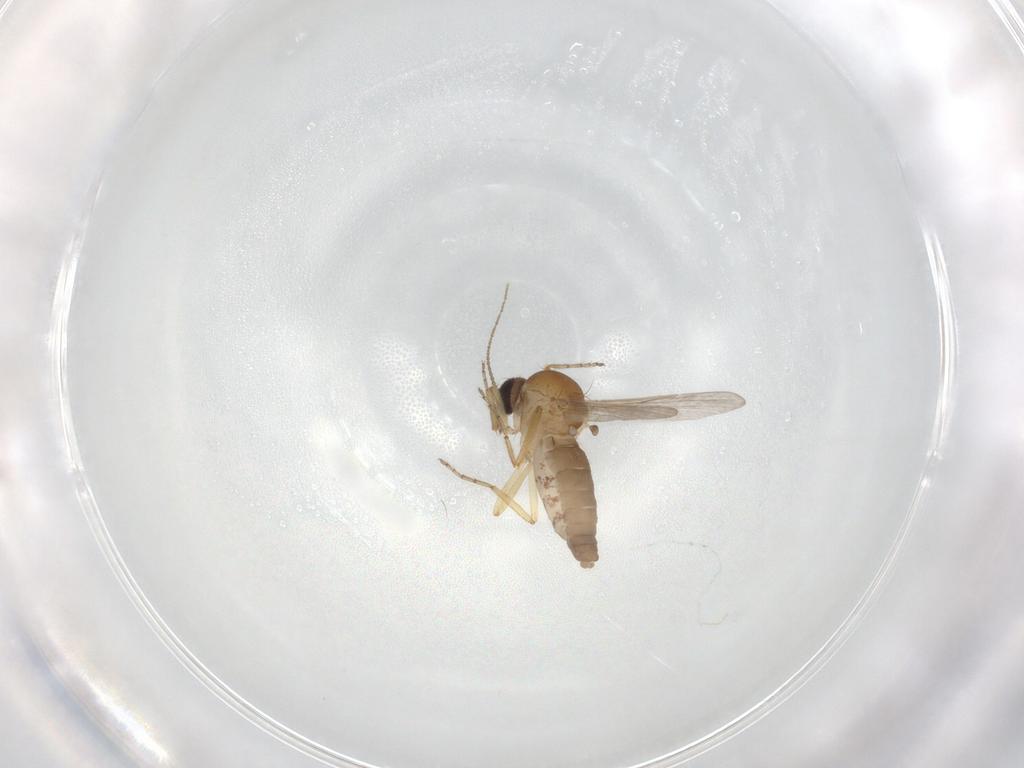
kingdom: Animalia
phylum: Arthropoda
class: Insecta
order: Diptera
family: Ceratopogonidae
